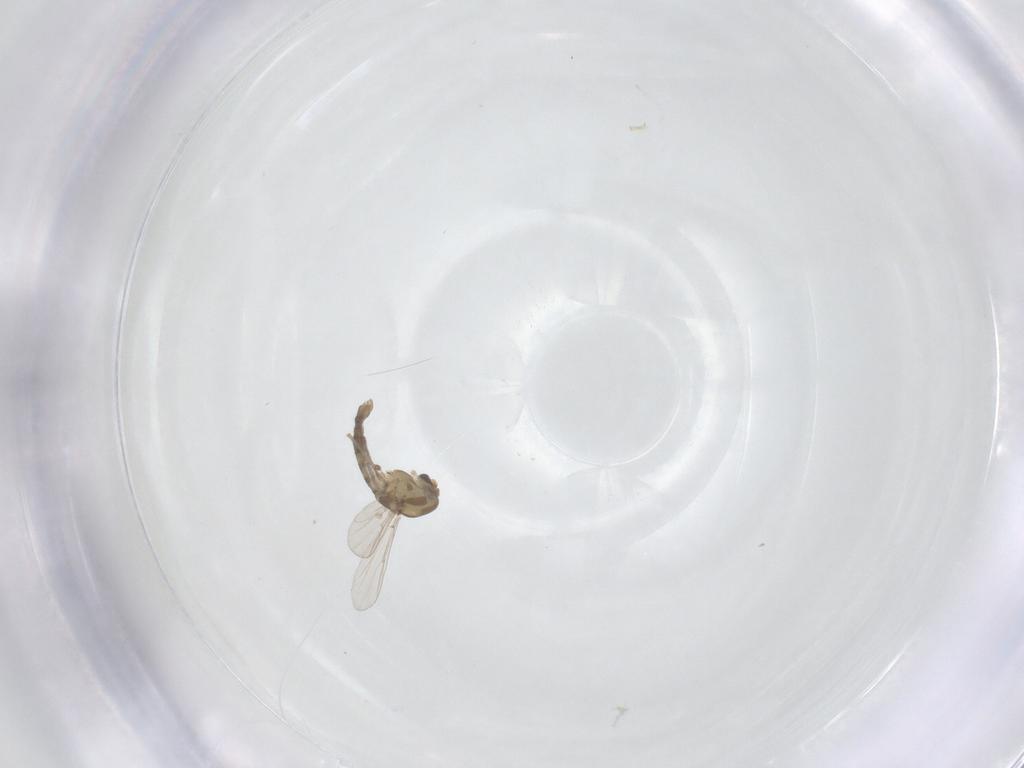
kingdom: Animalia
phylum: Arthropoda
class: Insecta
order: Diptera
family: Chironomidae
